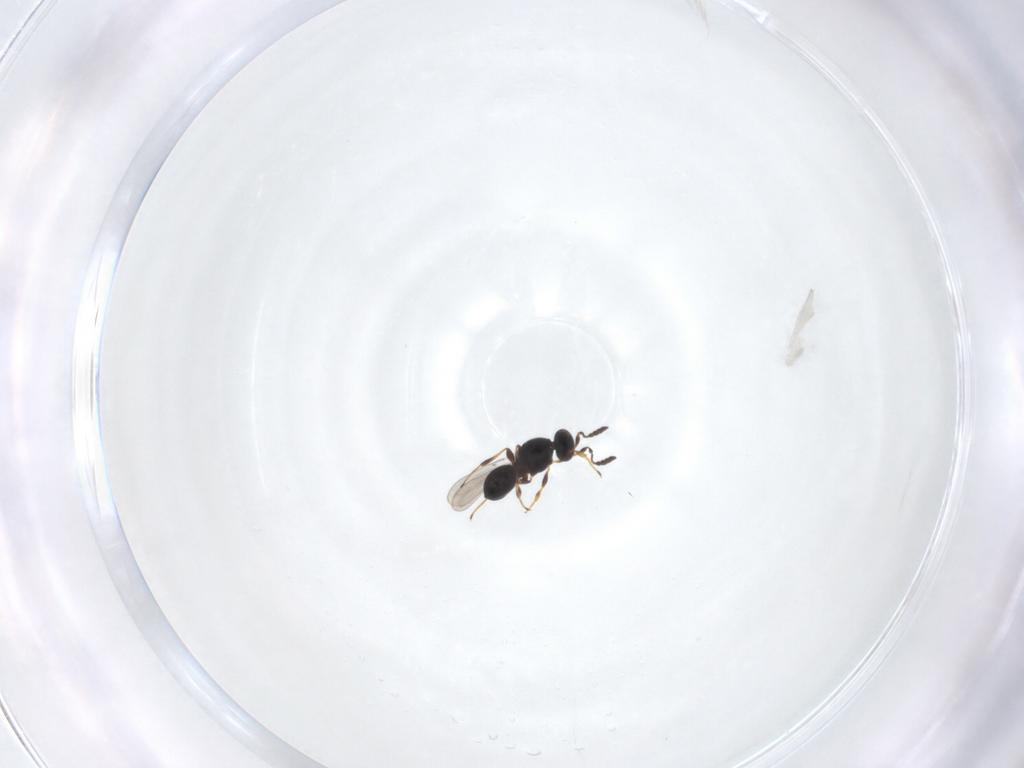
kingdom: Animalia
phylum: Arthropoda
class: Insecta
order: Hymenoptera
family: Platygastridae
